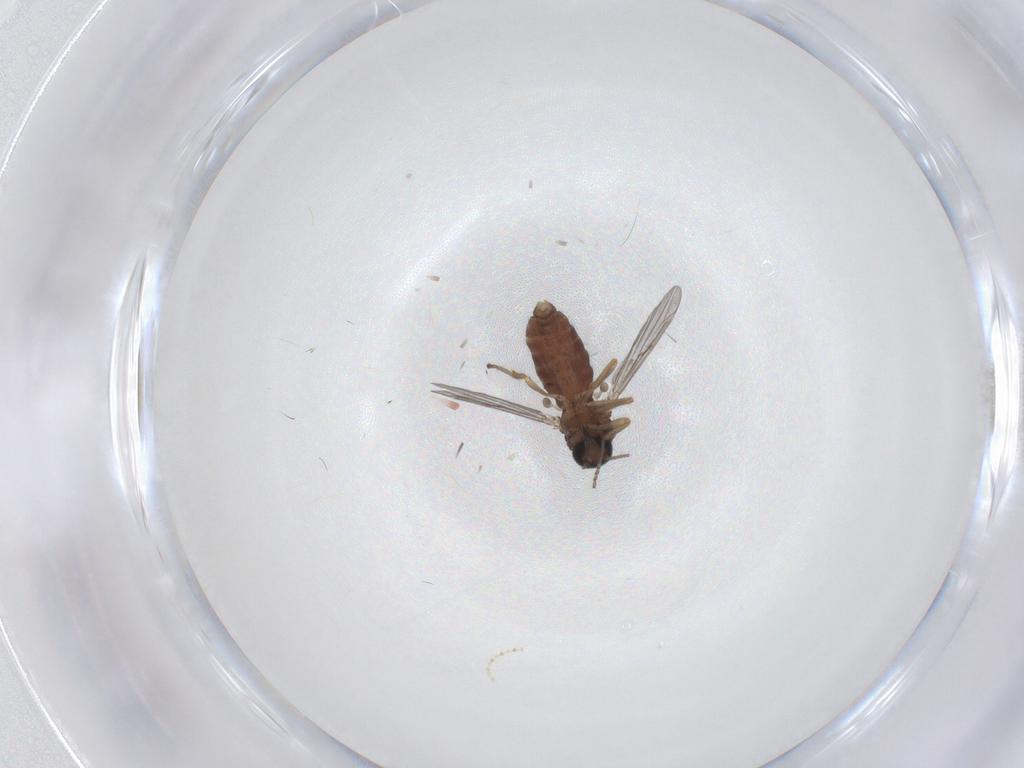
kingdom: Animalia
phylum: Arthropoda
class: Insecta
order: Diptera
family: Ceratopogonidae
